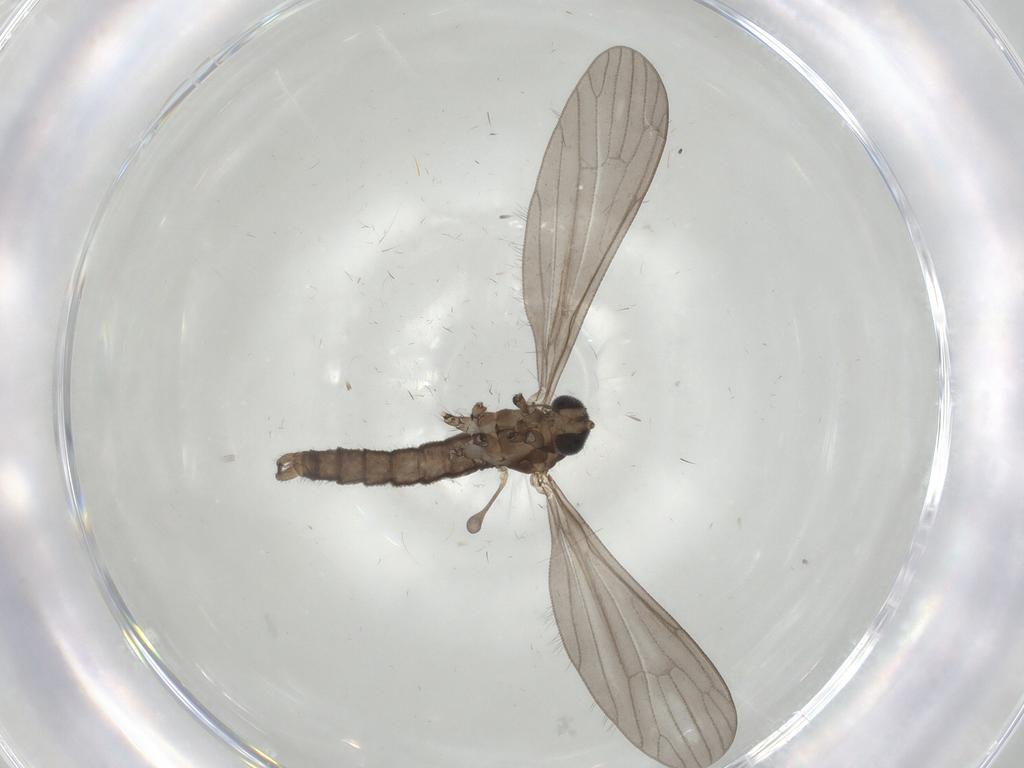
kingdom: Animalia
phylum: Arthropoda
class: Insecta
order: Diptera
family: Limoniidae
